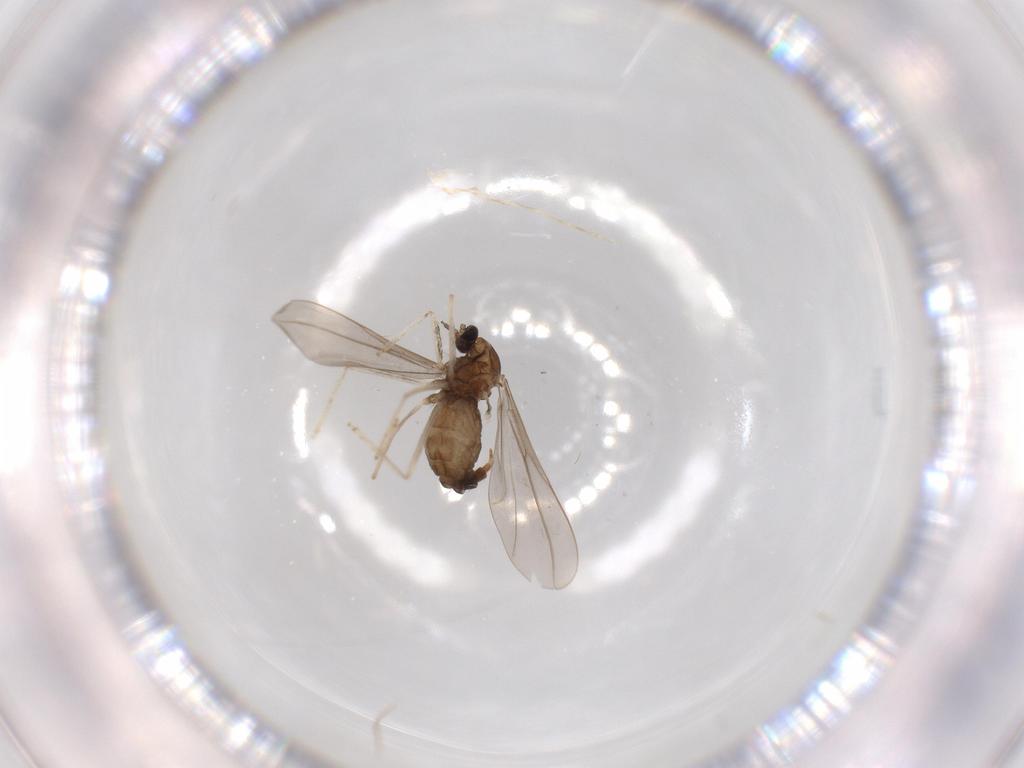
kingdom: Animalia
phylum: Arthropoda
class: Insecta
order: Diptera
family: Cecidomyiidae
